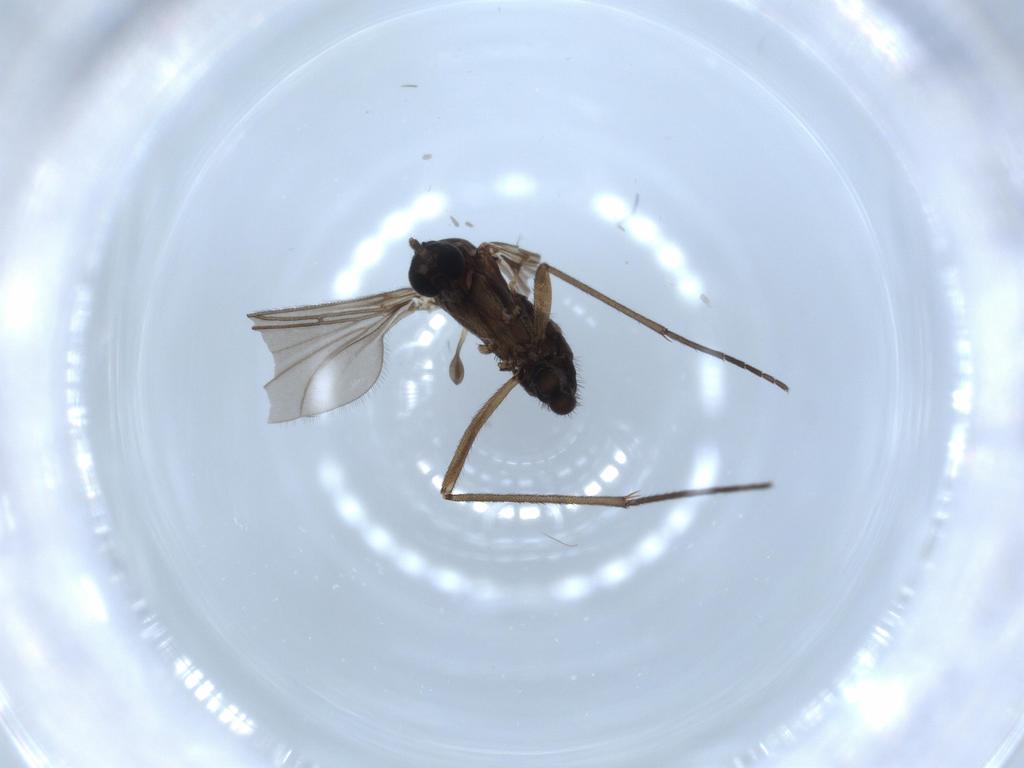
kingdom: Animalia
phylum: Arthropoda
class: Insecta
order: Diptera
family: Sciaridae
